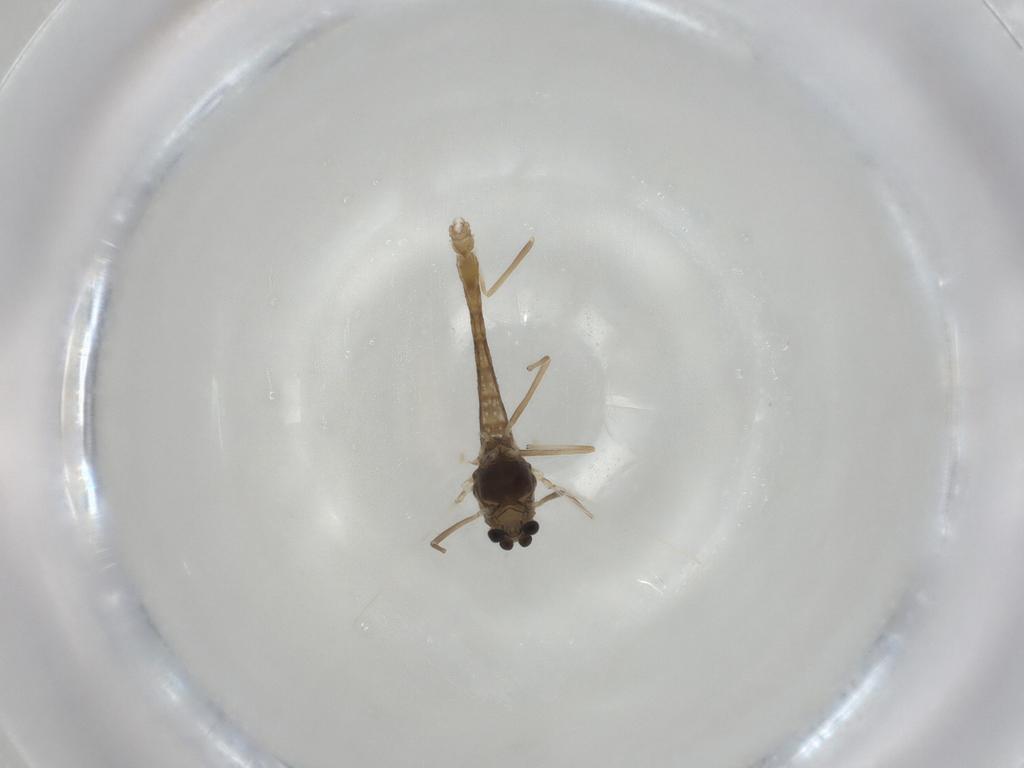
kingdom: Animalia
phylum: Arthropoda
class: Insecta
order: Diptera
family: Chironomidae
